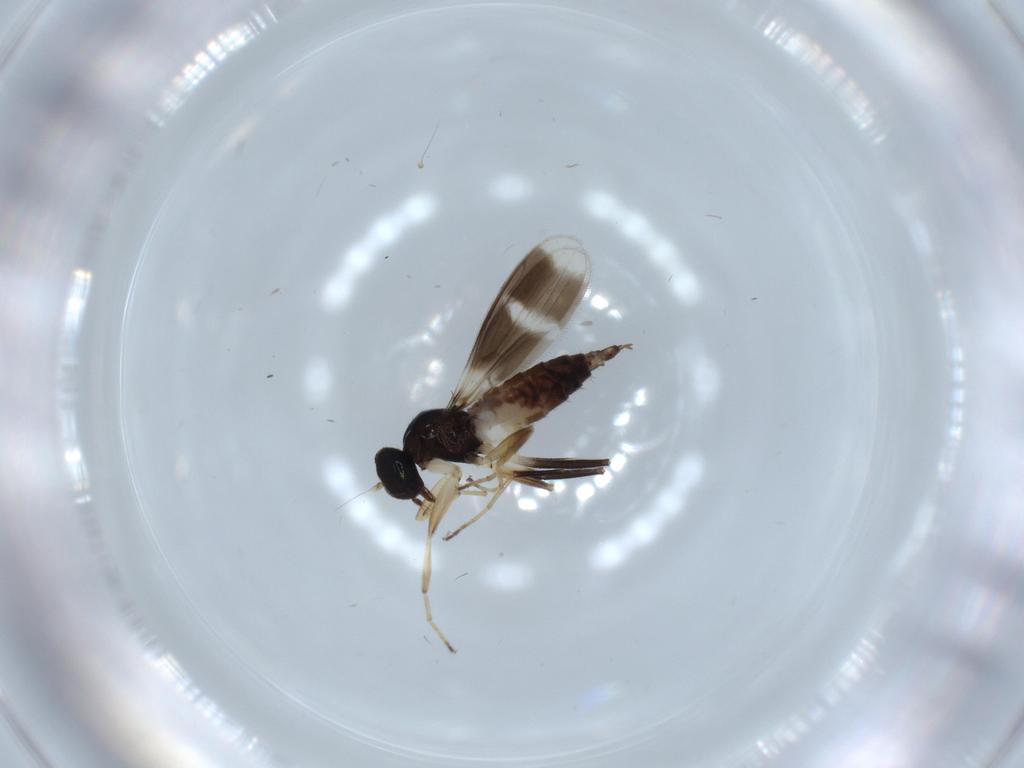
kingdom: Animalia
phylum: Arthropoda
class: Insecta
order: Diptera
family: Hybotidae
